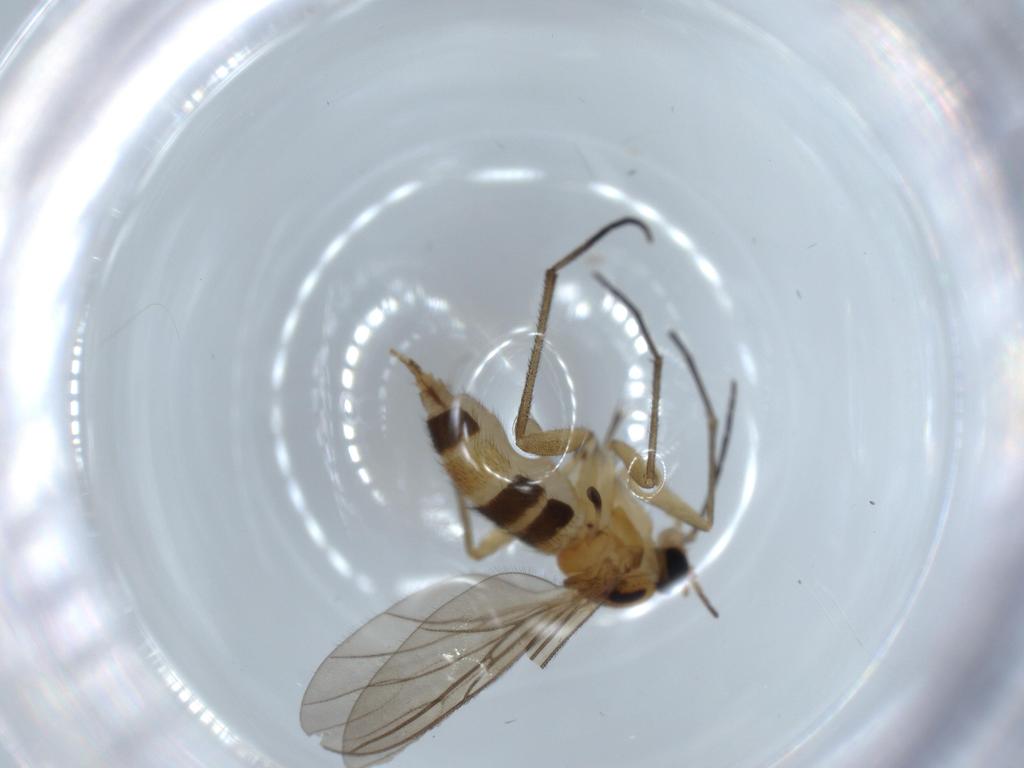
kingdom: Animalia
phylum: Arthropoda
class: Insecta
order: Diptera
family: Sciaridae
